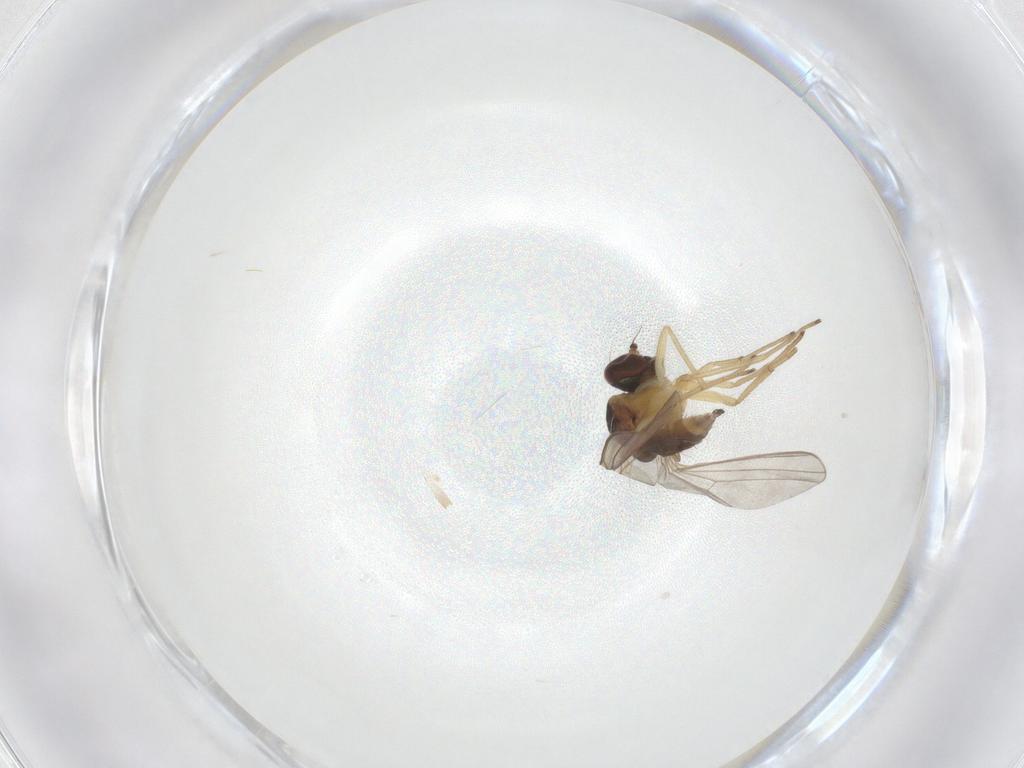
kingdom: Animalia
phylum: Arthropoda
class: Insecta
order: Diptera
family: Dolichopodidae
